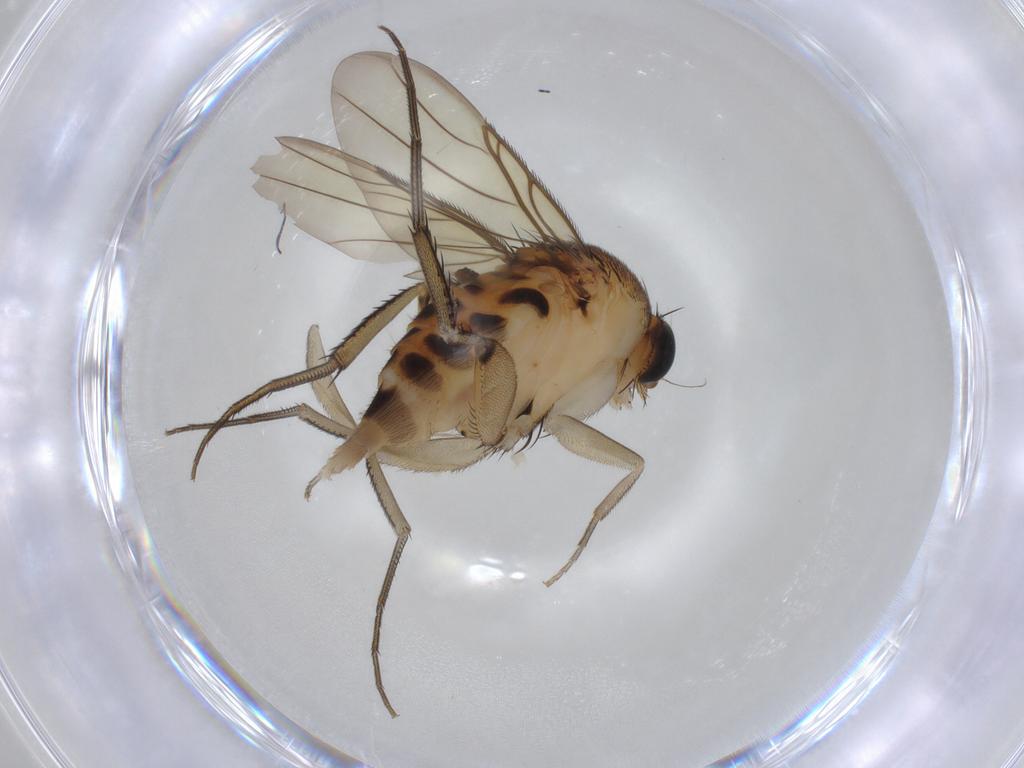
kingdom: Animalia
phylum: Arthropoda
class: Insecta
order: Diptera
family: Phoridae
